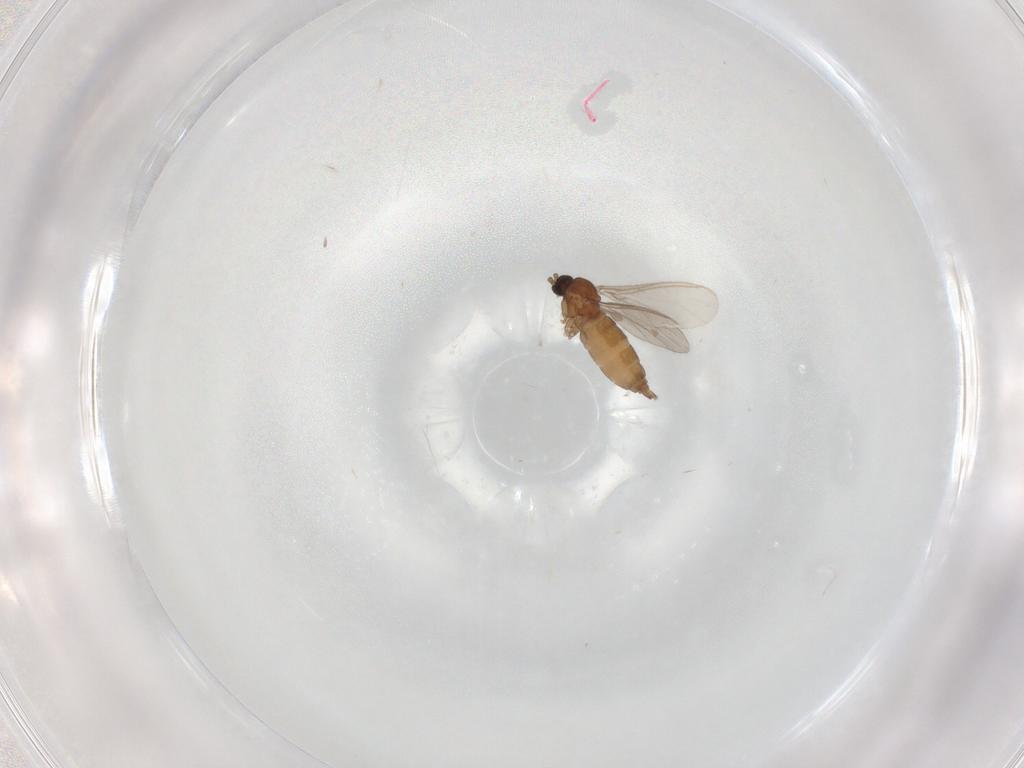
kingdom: Animalia
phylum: Arthropoda
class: Insecta
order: Diptera
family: Sciaridae
